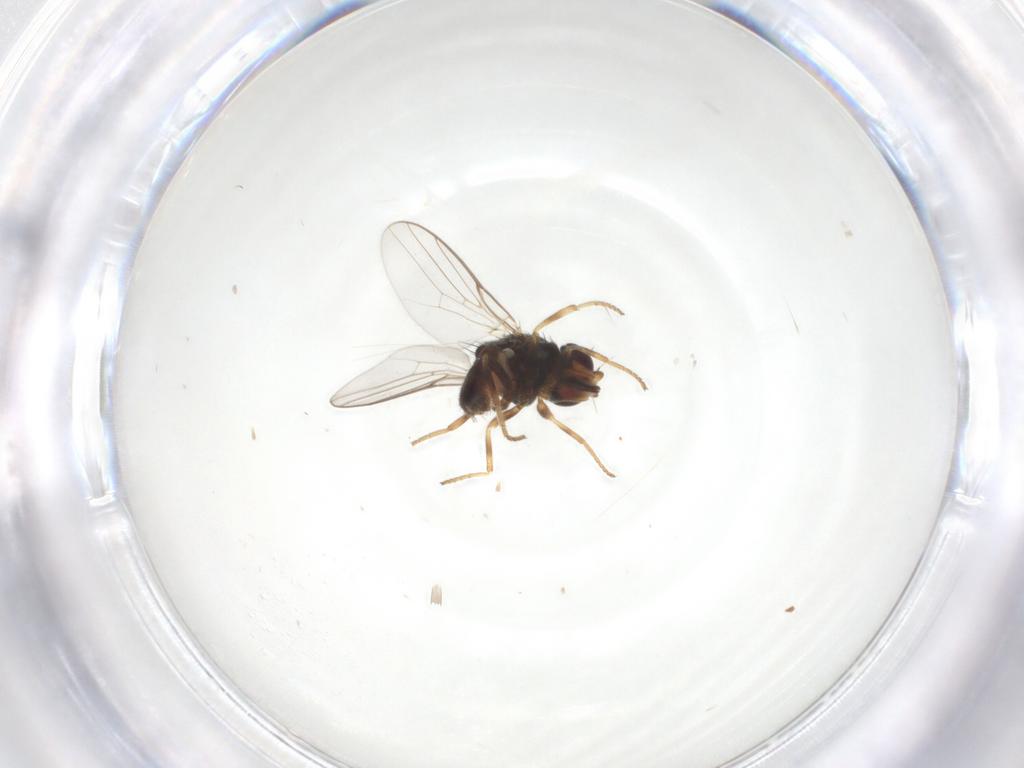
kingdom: Animalia
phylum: Arthropoda
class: Insecta
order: Diptera
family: Chloropidae
